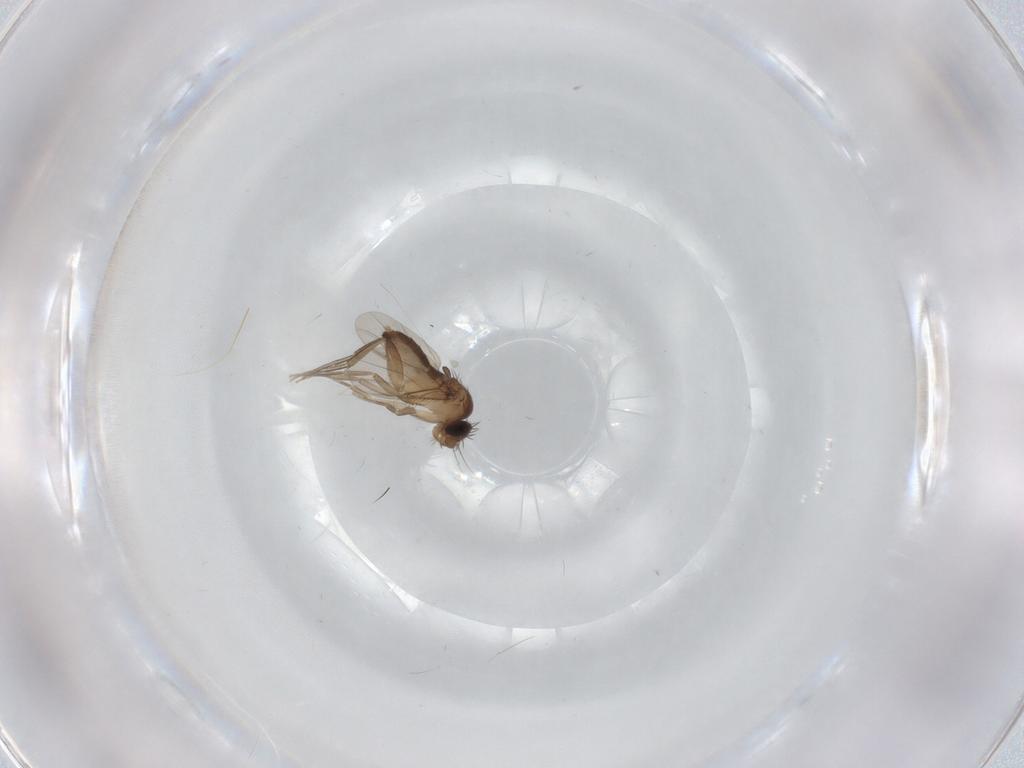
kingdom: Animalia
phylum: Arthropoda
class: Insecta
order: Diptera
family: Phoridae
